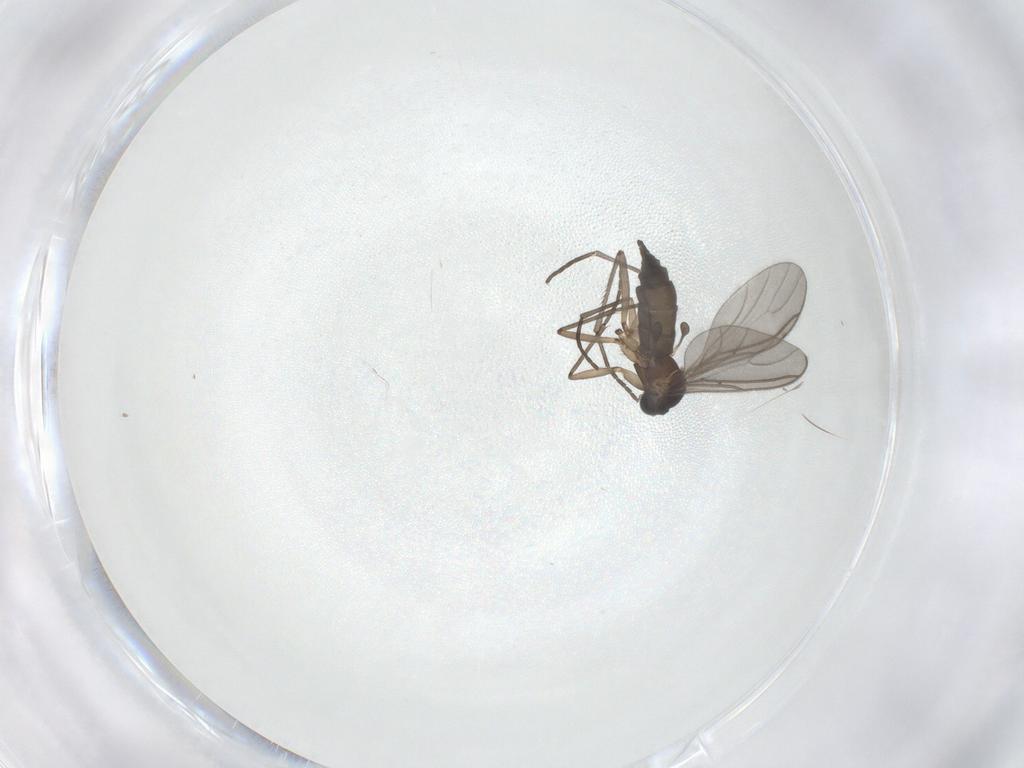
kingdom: Animalia
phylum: Arthropoda
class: Insecta
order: Diptera
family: Sciaridae
